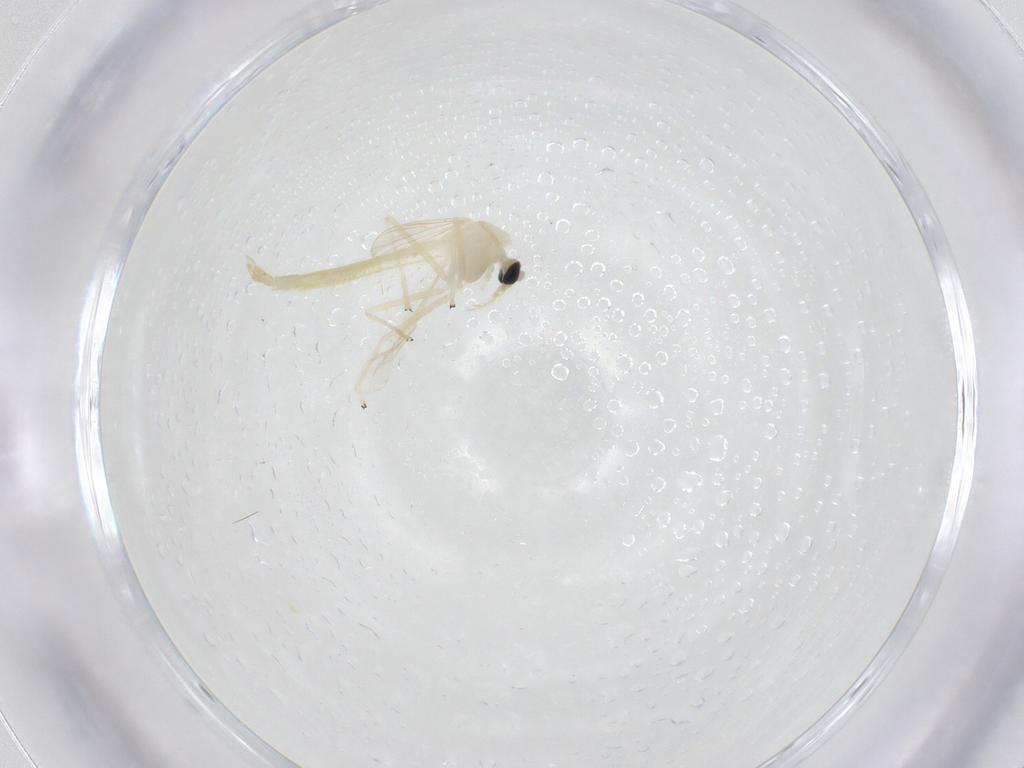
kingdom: Animalia
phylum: Arthropoda
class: Insecta
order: Diptera
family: Chironomidae
